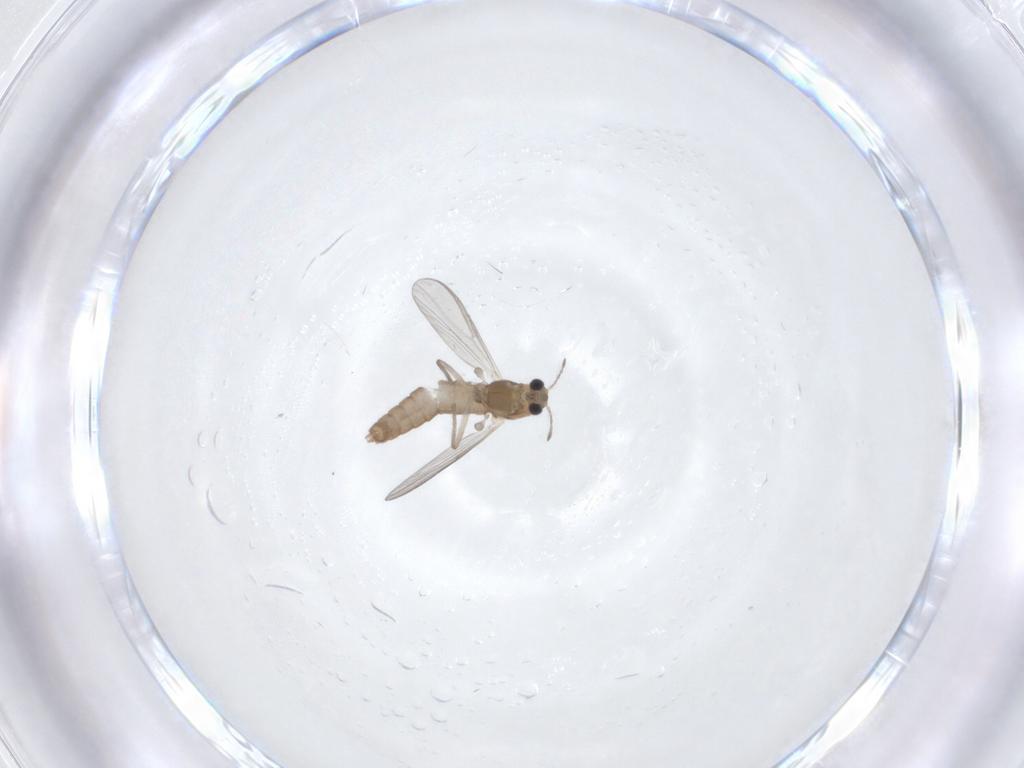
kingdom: Animalia
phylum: Arthropoda
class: Insecta
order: Diptera
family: Chironomidae
